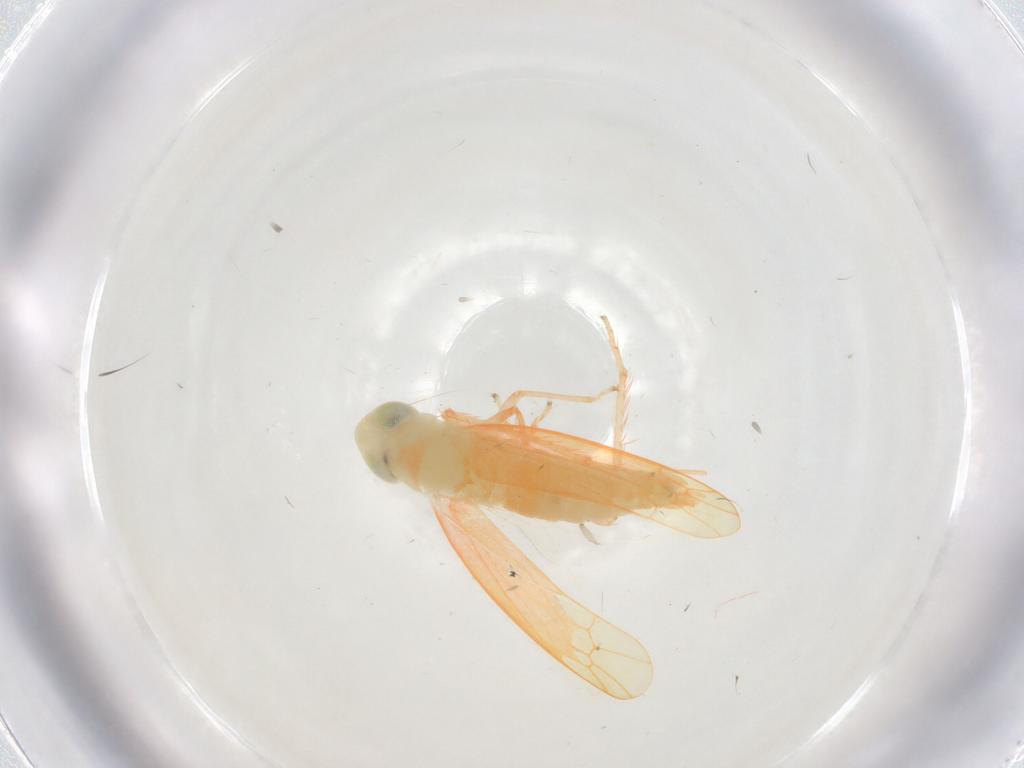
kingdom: Animalia
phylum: Arthropoda
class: Insecta
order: Hemiptera
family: Cicadellidae
